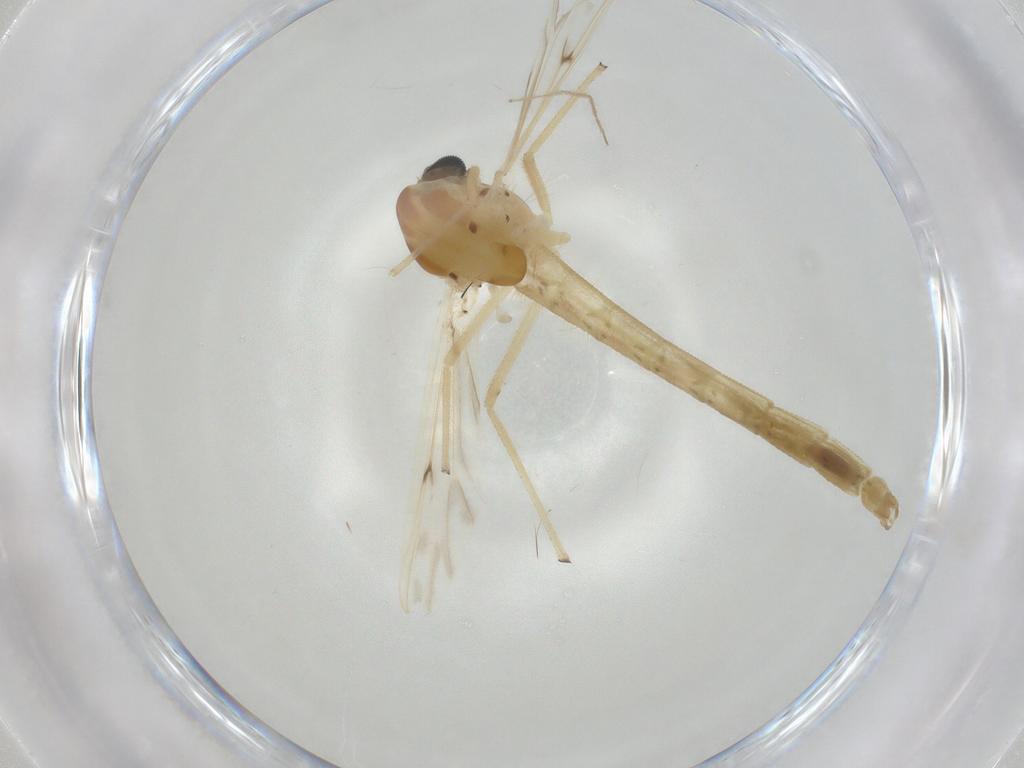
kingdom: Animalia
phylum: Arthropoda
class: Insecta
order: Diptera
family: Ceratopogonidae
